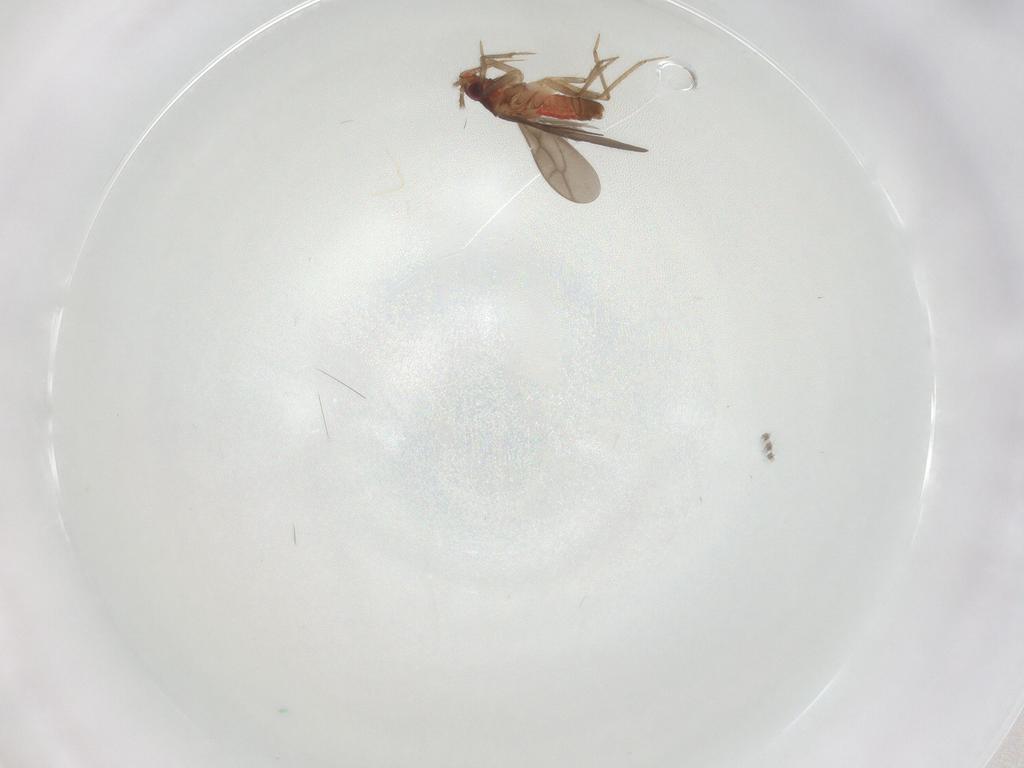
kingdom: Animalia
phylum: Arthropoda
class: Insecta
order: Hemiptera
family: Ceratocombidae
